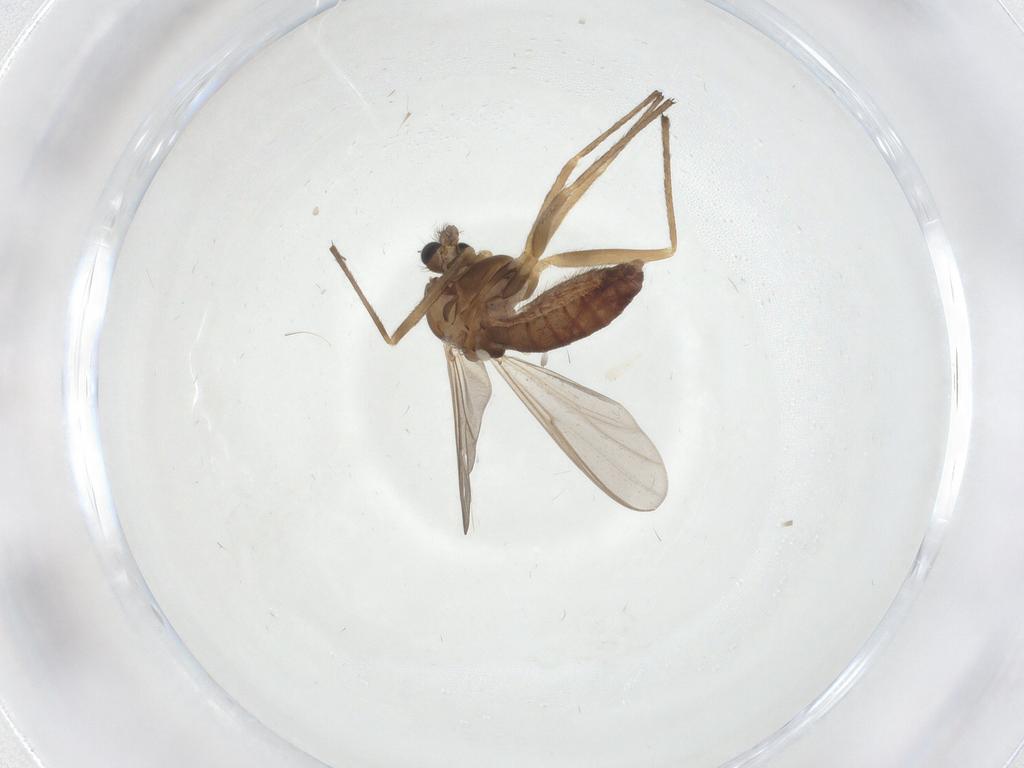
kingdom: Animalia
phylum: Arthropoda
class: Insecta
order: Diptera
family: Chironomidae
